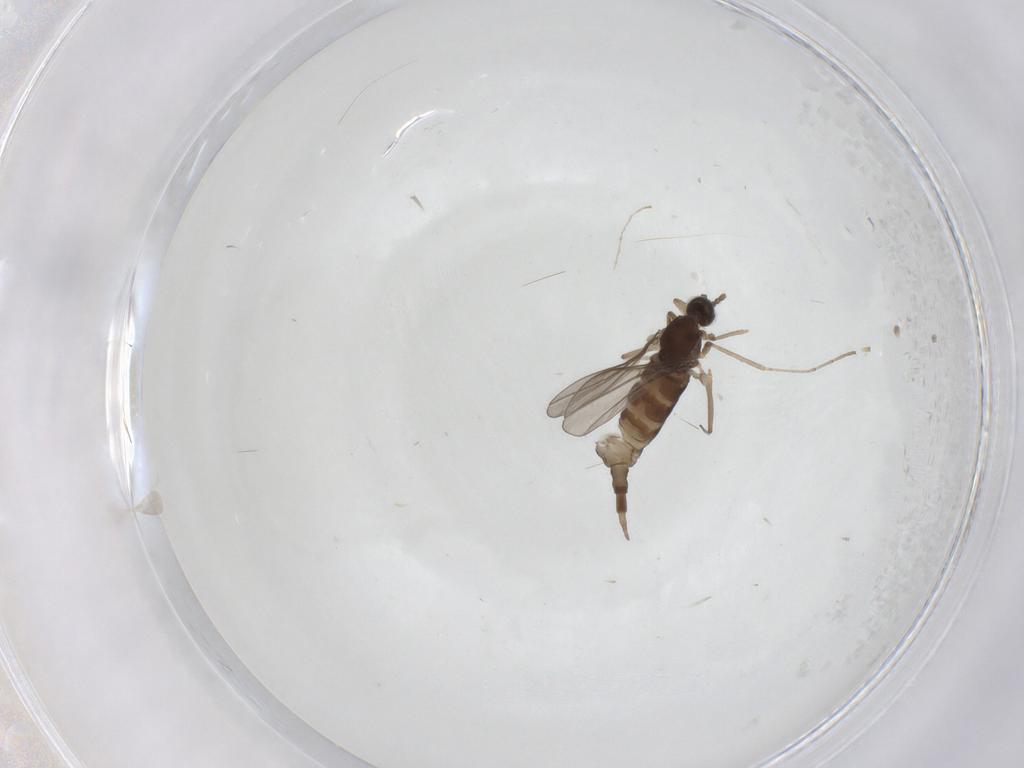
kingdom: Animalia
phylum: Arthropoda
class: Insecta
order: Diptera
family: Cecidomyiidae
